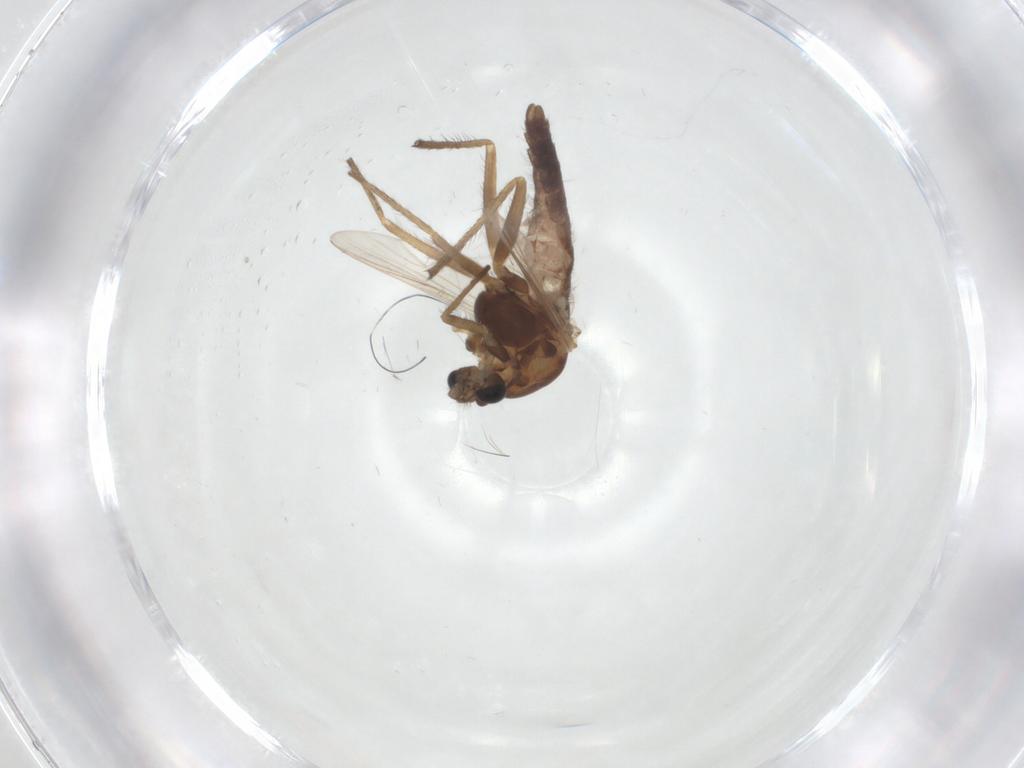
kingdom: Animalia
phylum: Arthropoda
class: Insecta
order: Diptera
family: Chironomidae
